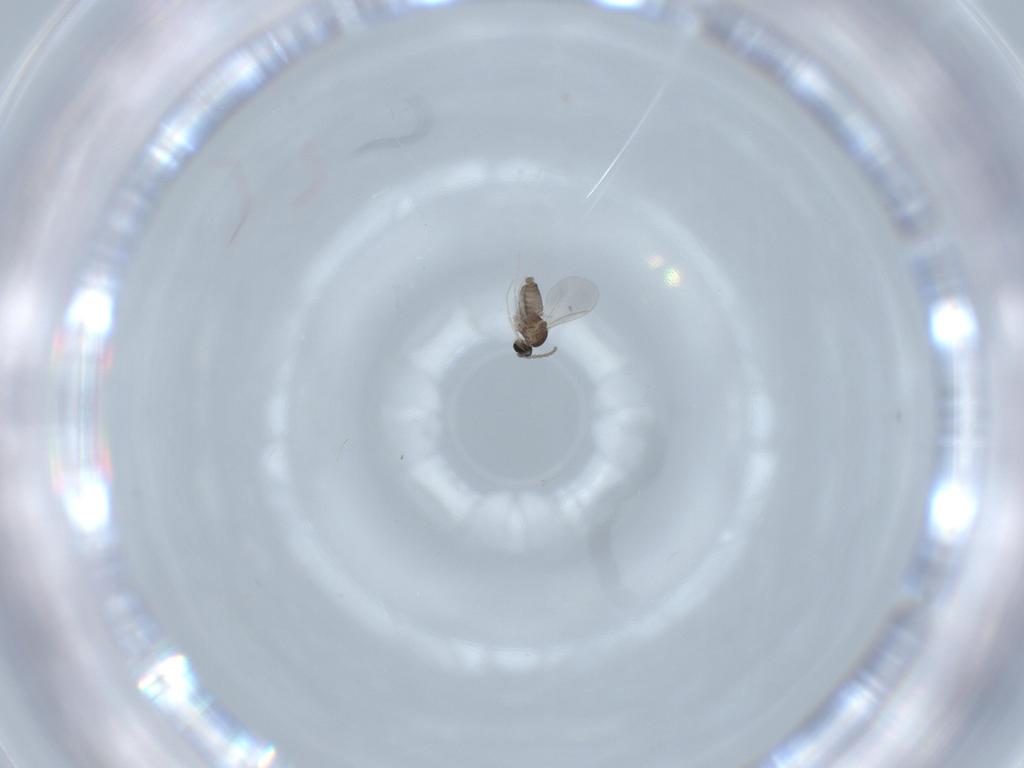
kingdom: Animalia
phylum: Arthropoda
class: Insecta
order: Diptera
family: Cecidomyiidae
